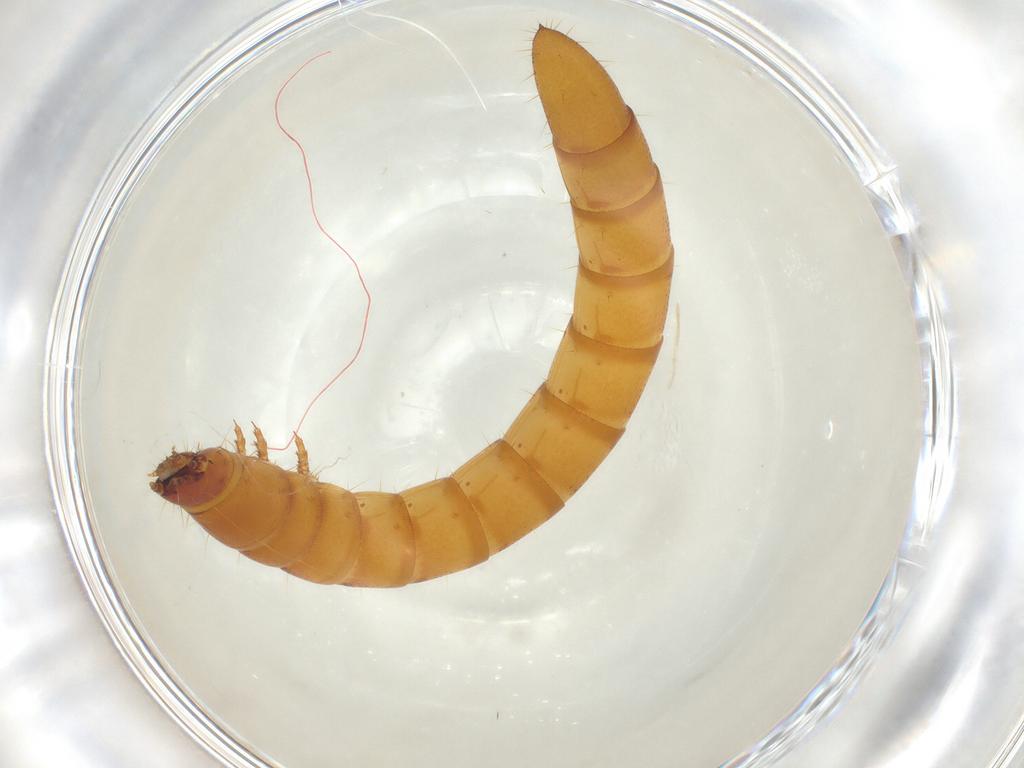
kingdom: Animalia
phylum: Arthropoda
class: Insecta
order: Coleoptera
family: Elateridae
